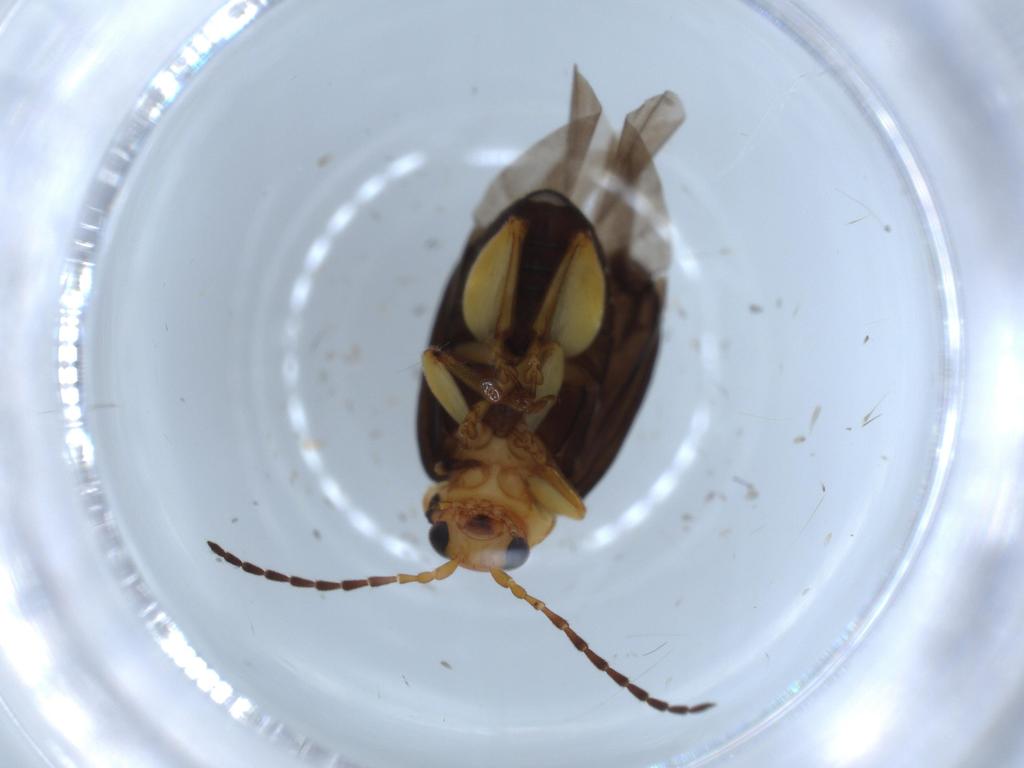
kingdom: Animalia
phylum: Arthropoda
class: Insecta
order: Coleoptera
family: Chrysomelidae
